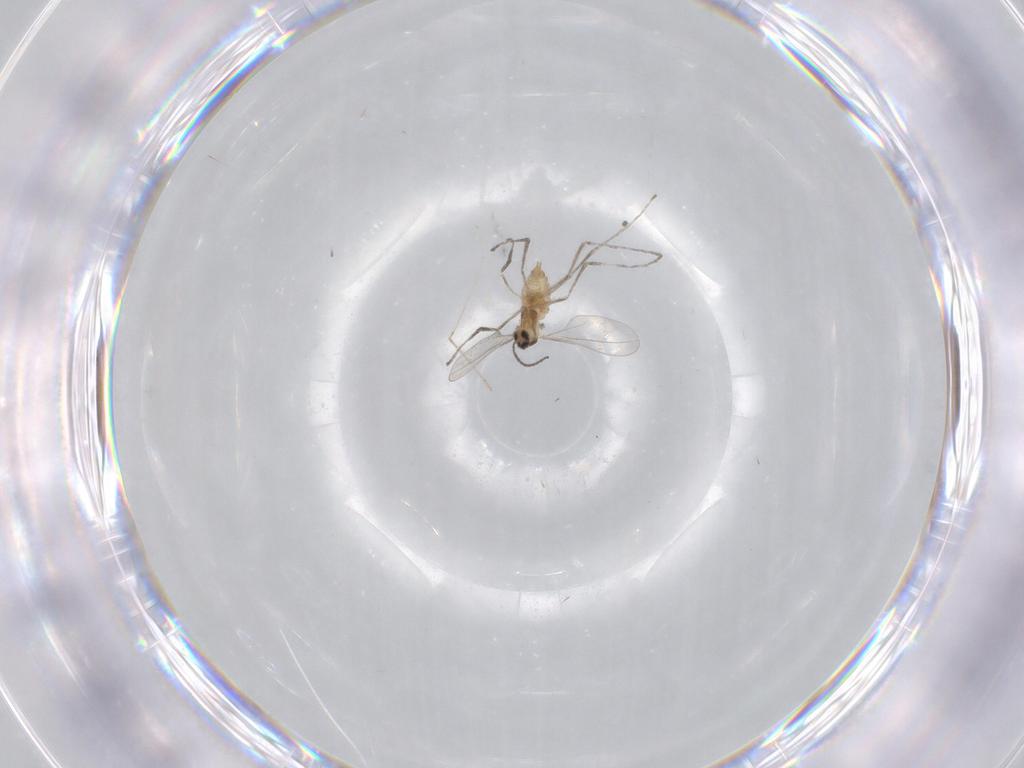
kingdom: Animalia
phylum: Arthropoda
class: Insecta
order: Diptera
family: Cecidomyiidae
